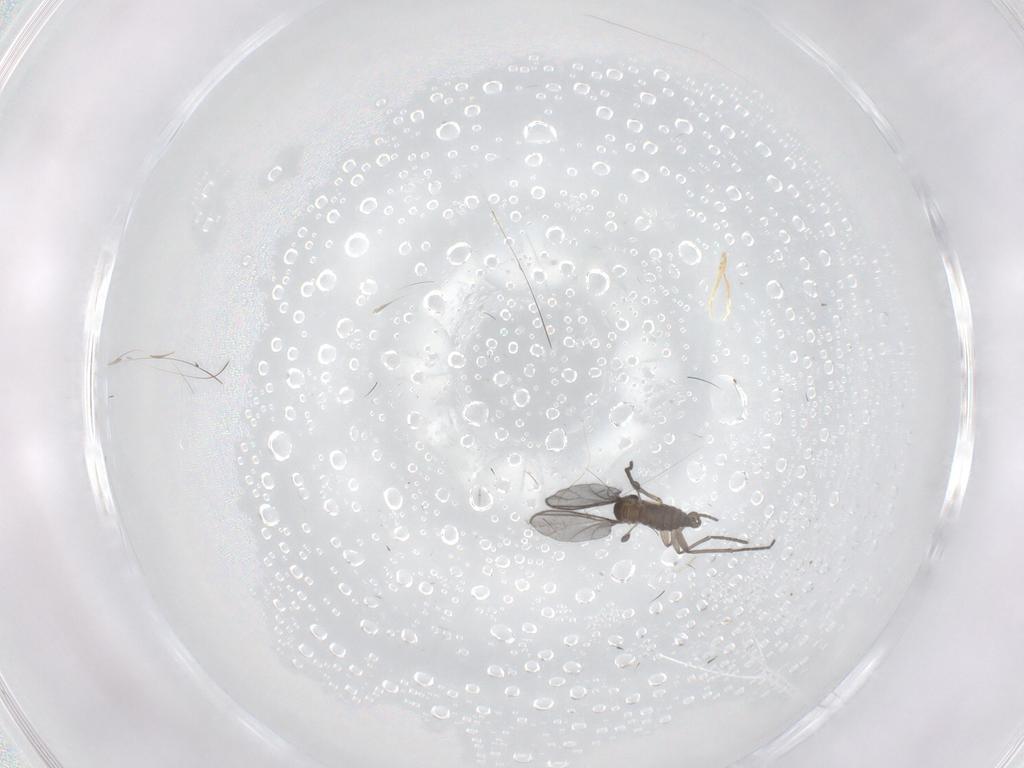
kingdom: Animalia
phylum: Arthropoda
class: Insecta
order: Diptera
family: Sciaridae
